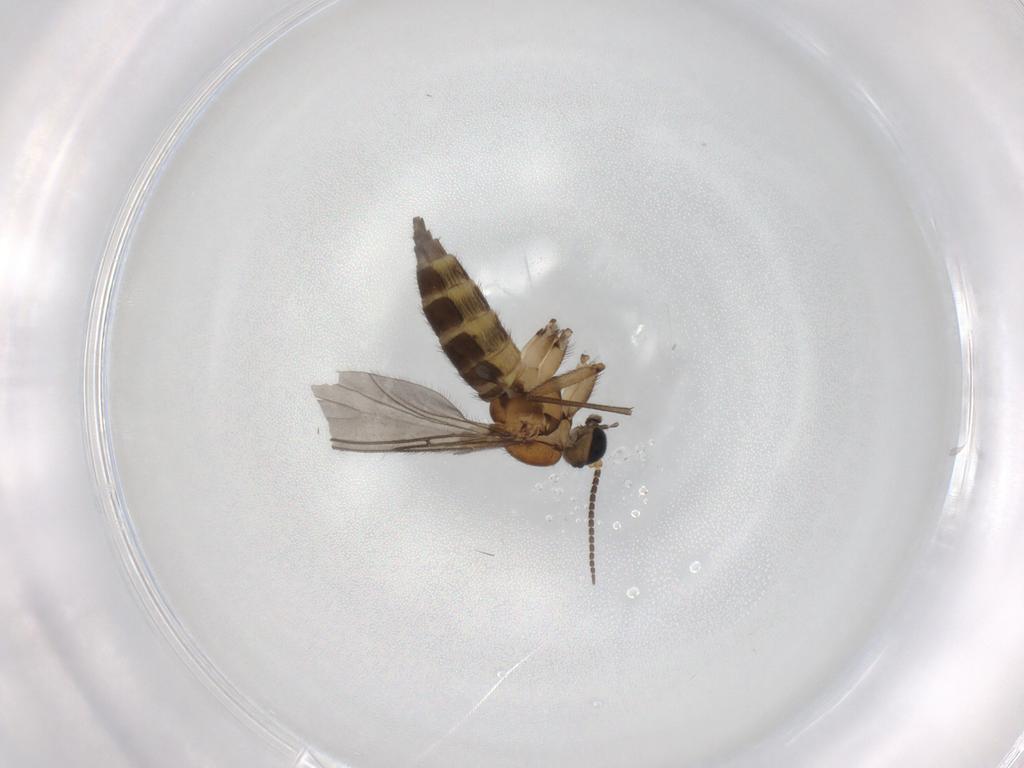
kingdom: Animalia
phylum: Arthropoda
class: Insecta
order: Diptera
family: Sciaridae
